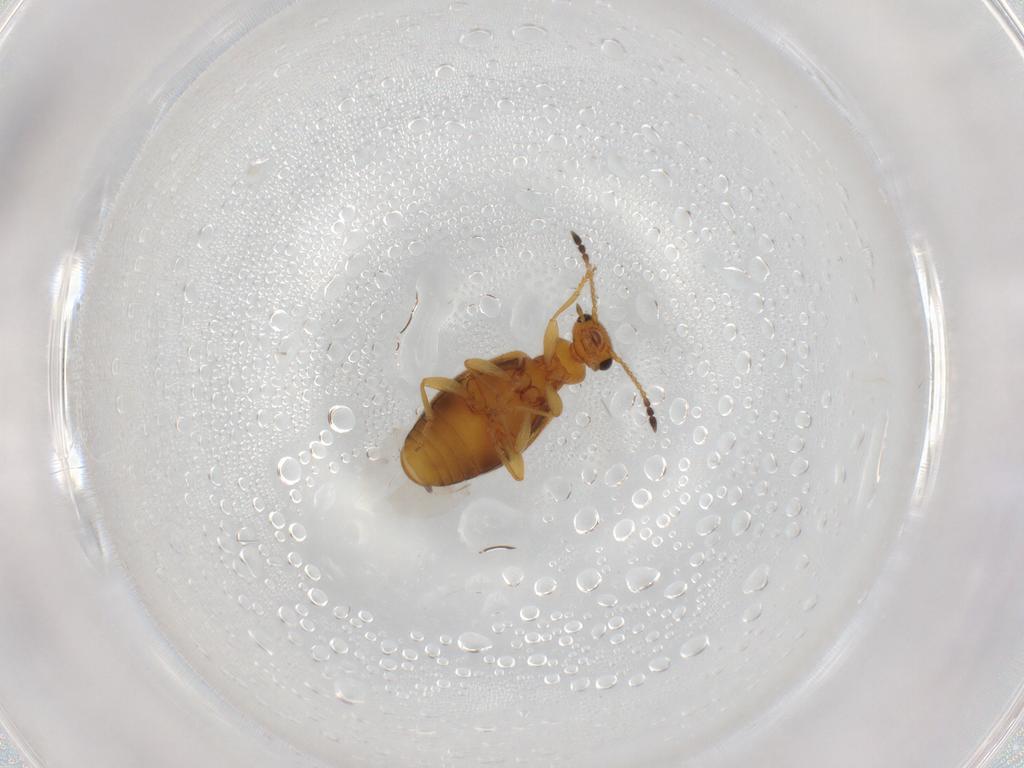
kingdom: Animalia
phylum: Arthropoda
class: Insecta
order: Coleoptera
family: Anthicidae
